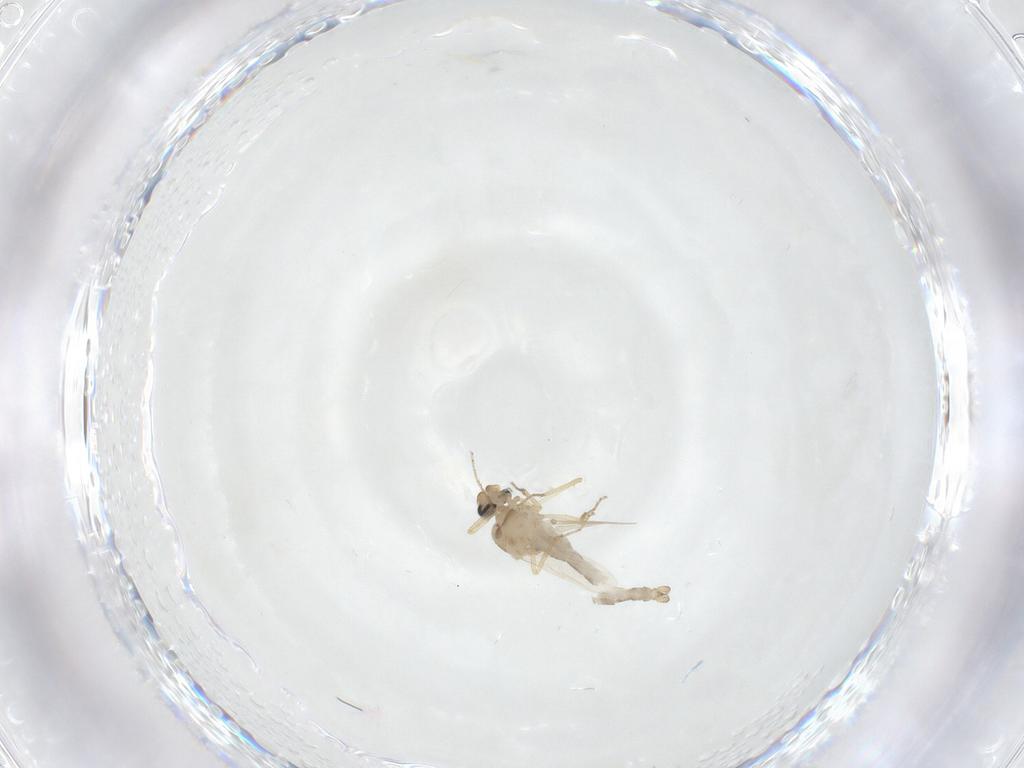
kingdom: Animalia
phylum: Arthropoda
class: Insecta
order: Diptera
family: Ceratopogonidae
